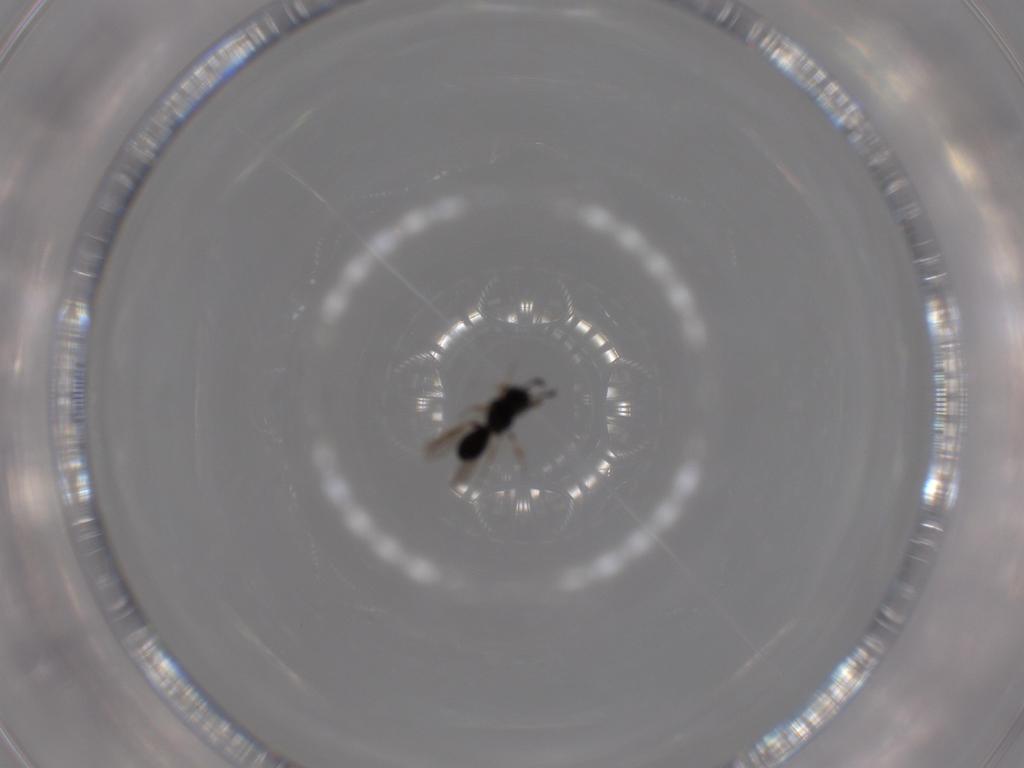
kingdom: Animalia
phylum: Arthropoda
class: Insecta
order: Hymenoptera
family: Scelionidae
